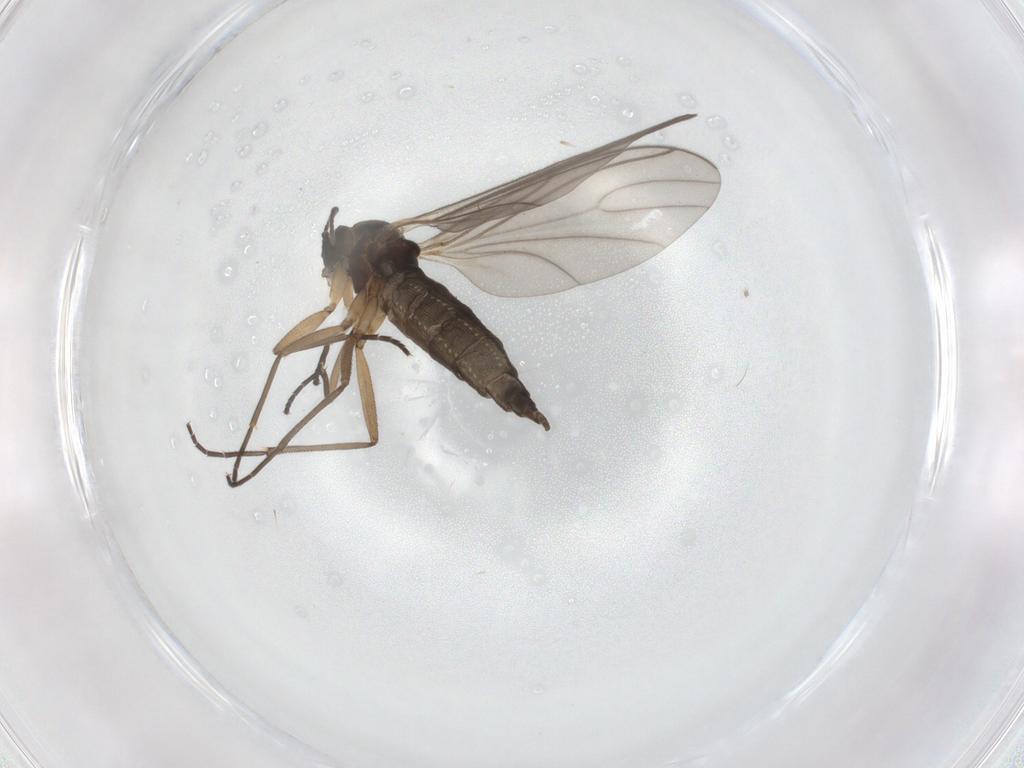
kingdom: Animalia
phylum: Arthropoda
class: Insecta
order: Diptera
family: Sciaridae
